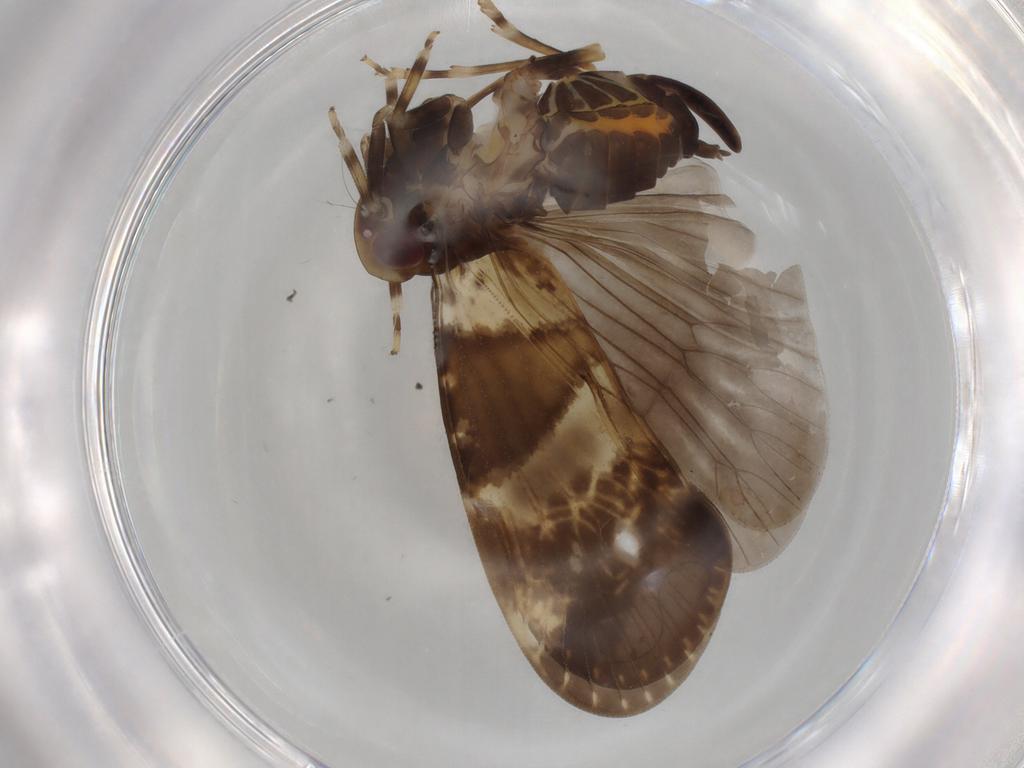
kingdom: Animalia
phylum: Arthropoda
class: Insecta
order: Hemiptera
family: Cixiidae
